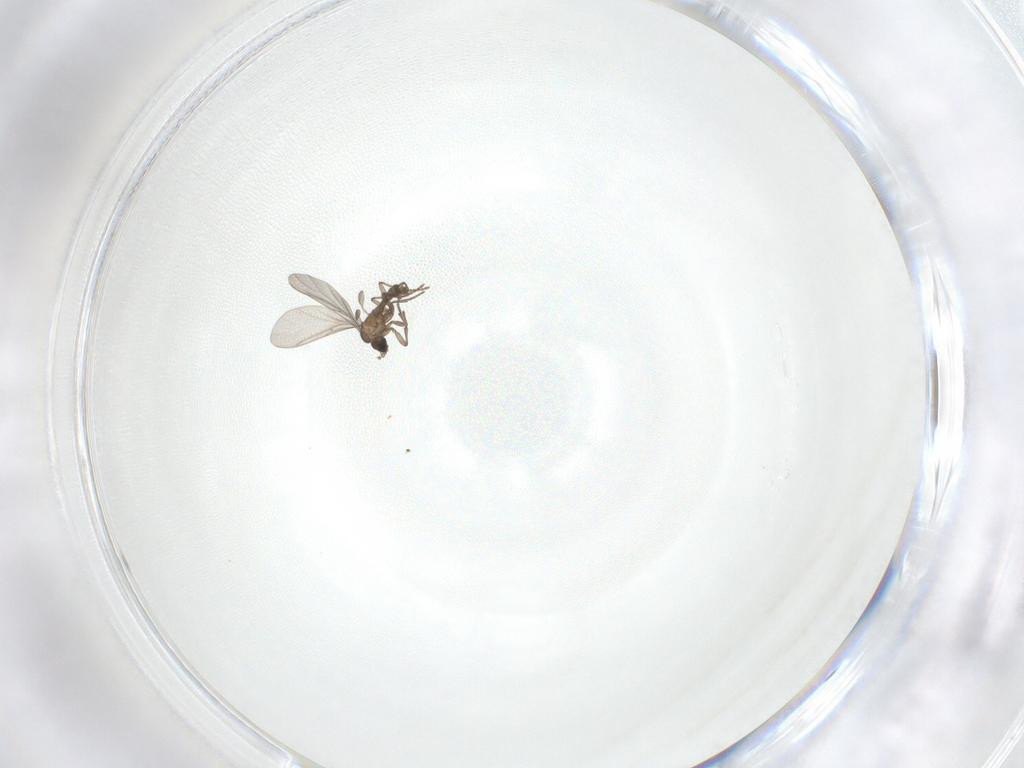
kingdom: Animalia
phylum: Arthropoda
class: Insecta
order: Diptera
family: Sciaridae
